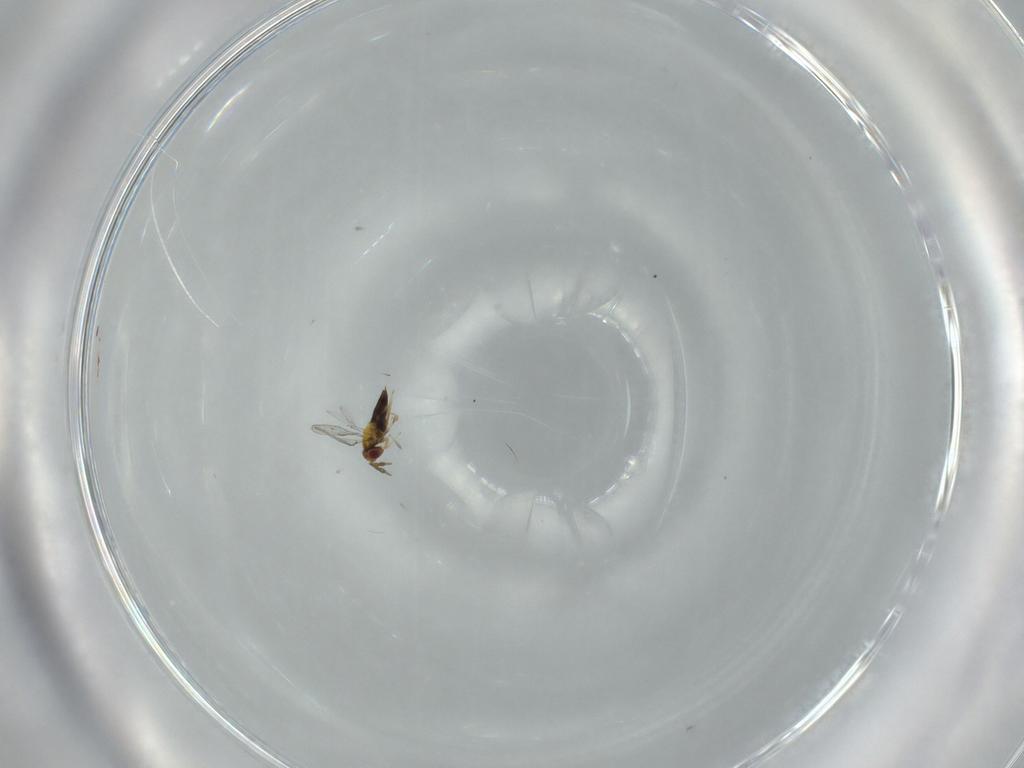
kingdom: Animalia
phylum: Arthropoda
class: Insecta
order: Hymenoptera
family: Trichogrammatidae
